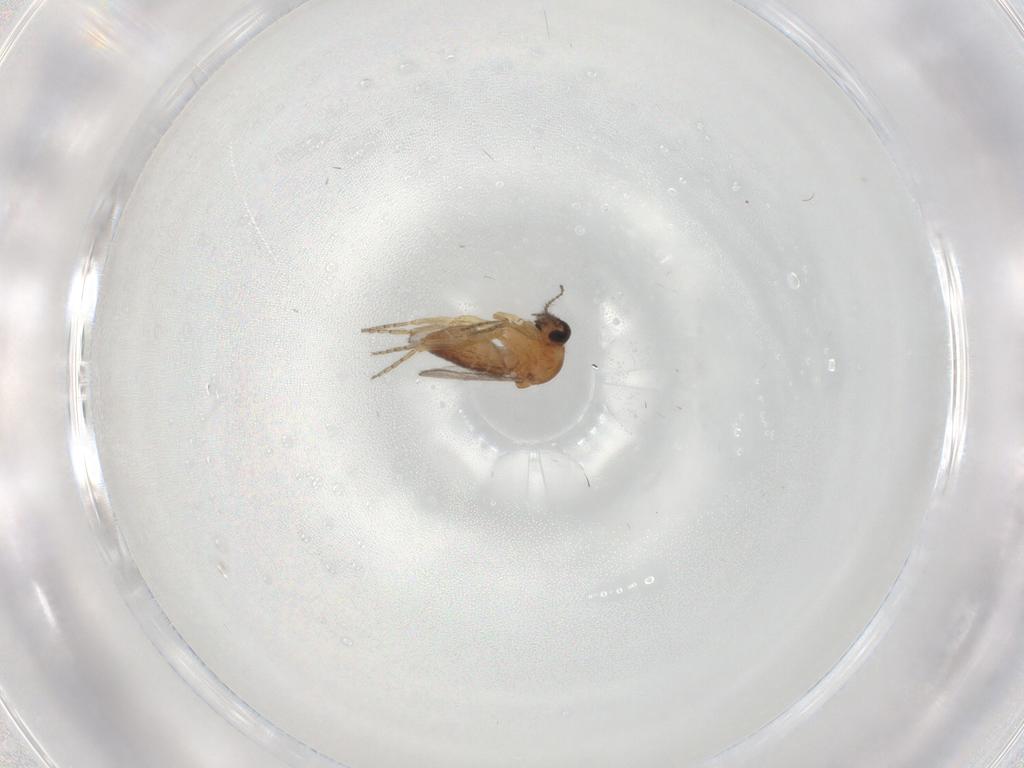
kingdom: Animalia
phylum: Arthropoda
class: Insecta
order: Diptera
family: Ceratopogonidae
